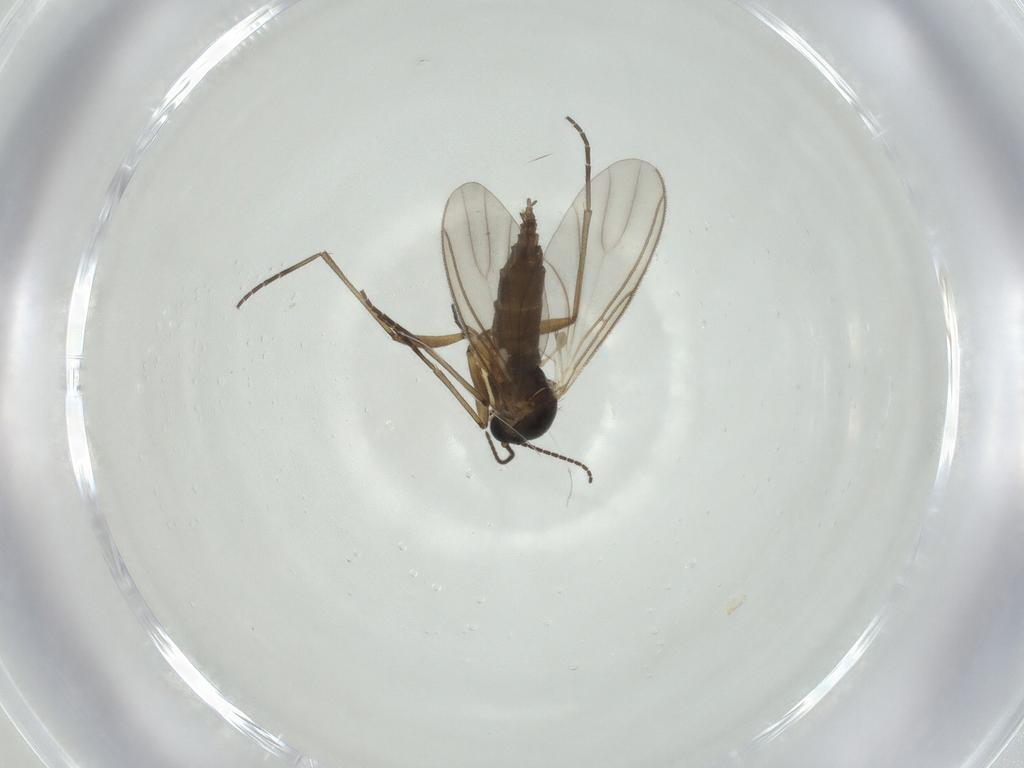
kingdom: Animalia
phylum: Arthropoda
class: Insecta
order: Diptera
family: Mycetophilidae
